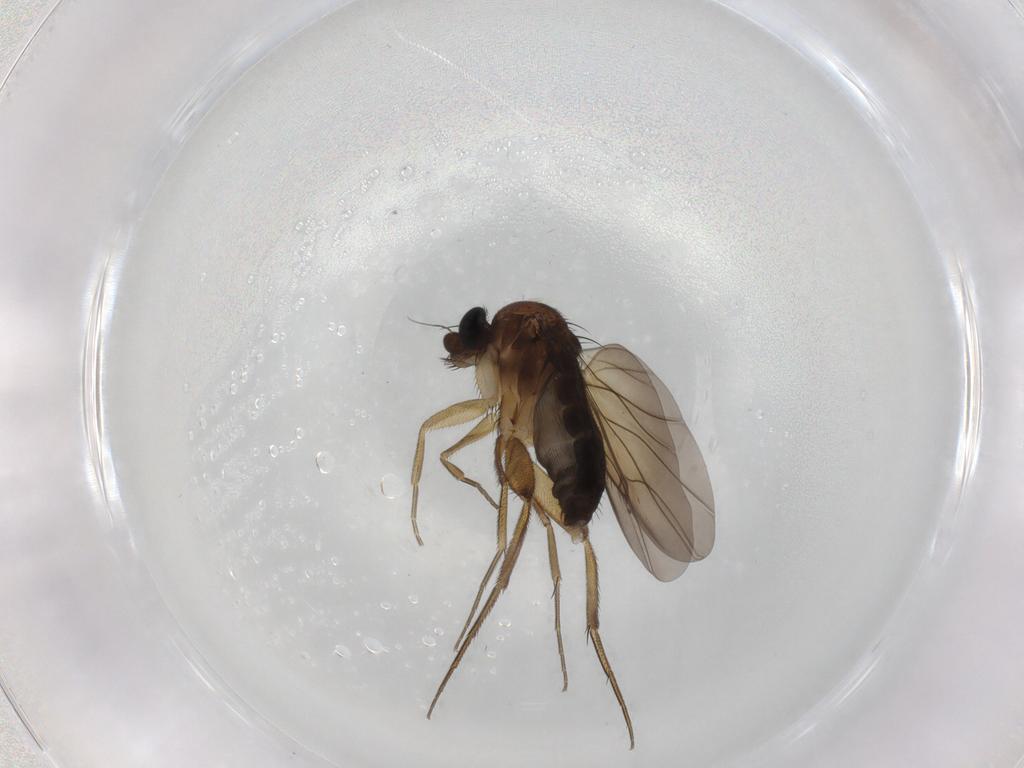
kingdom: Animalia
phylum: Arthropoda
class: Insecta
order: Diptera
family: Phoridae
